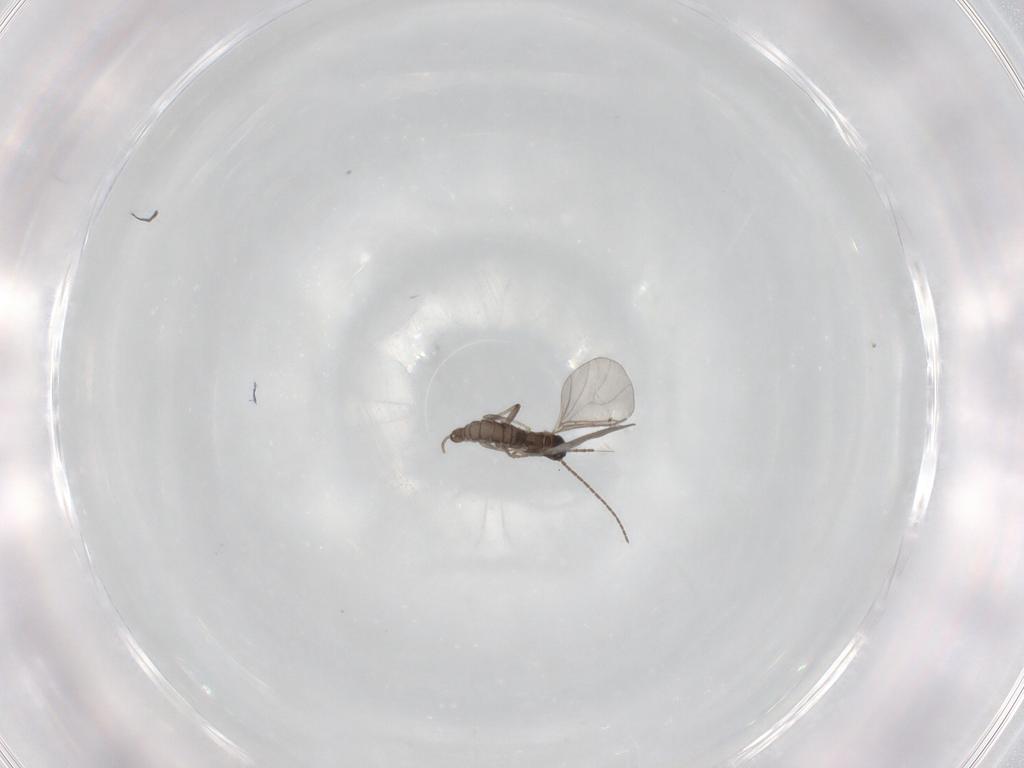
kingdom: Animalia
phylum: Arthropoda
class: Insecta
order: Diptera
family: Sciaridae
